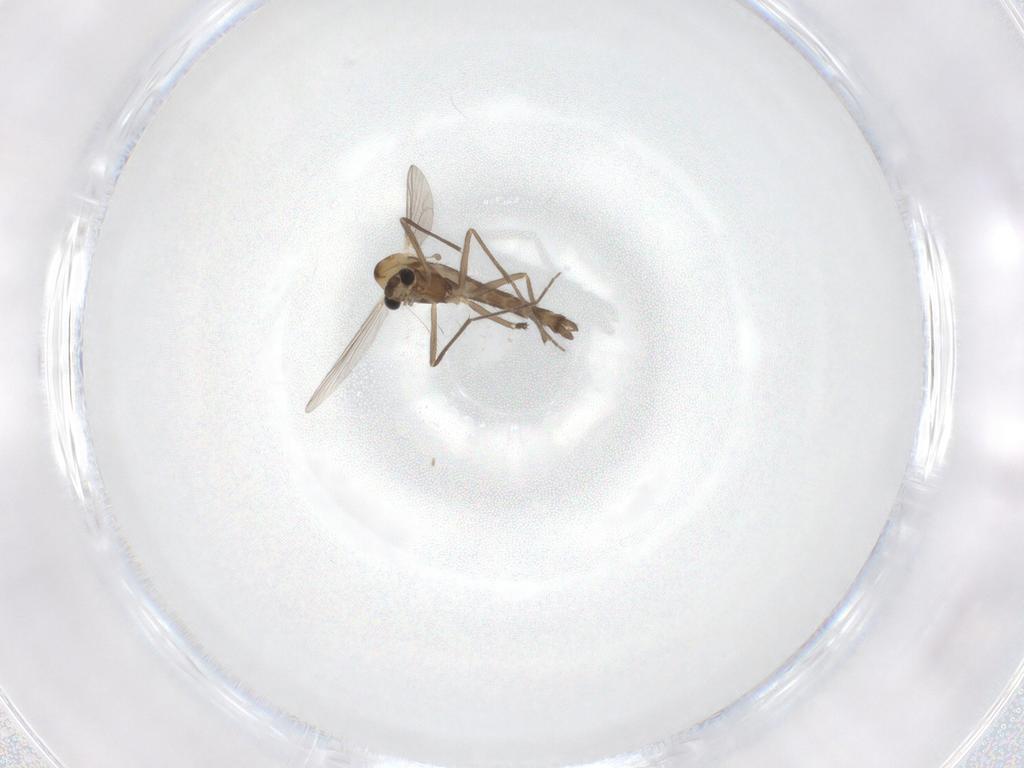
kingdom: Animalia
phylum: Arthropoda
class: Insecta
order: Diptera
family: Chironomidae
